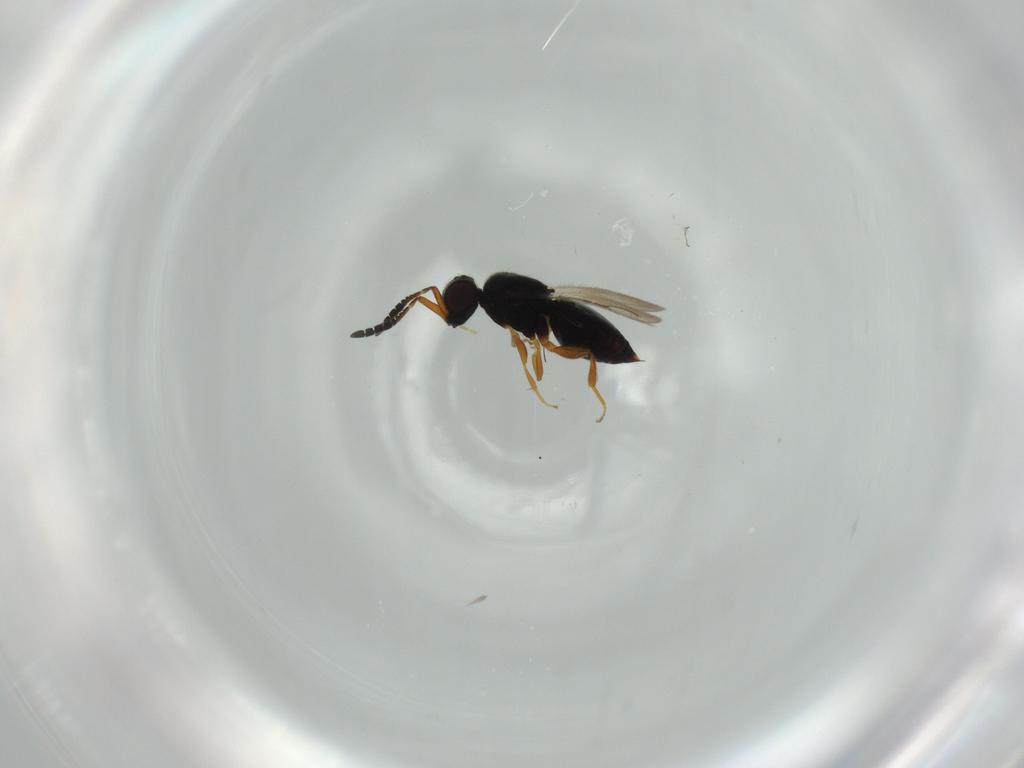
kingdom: Animalia
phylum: Arthropoda
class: Insecta
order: Hymenoptera
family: Ceraphronidae
